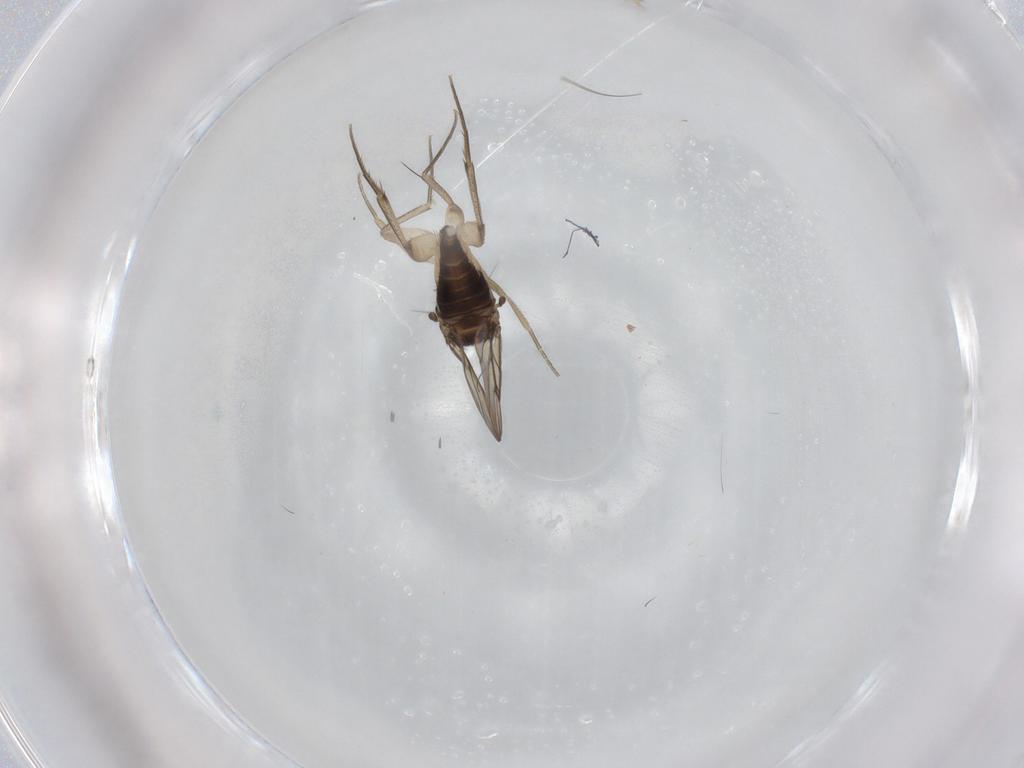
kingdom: Animalia
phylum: Arthropoda
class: Insecta
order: Diptera
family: Phoridae
